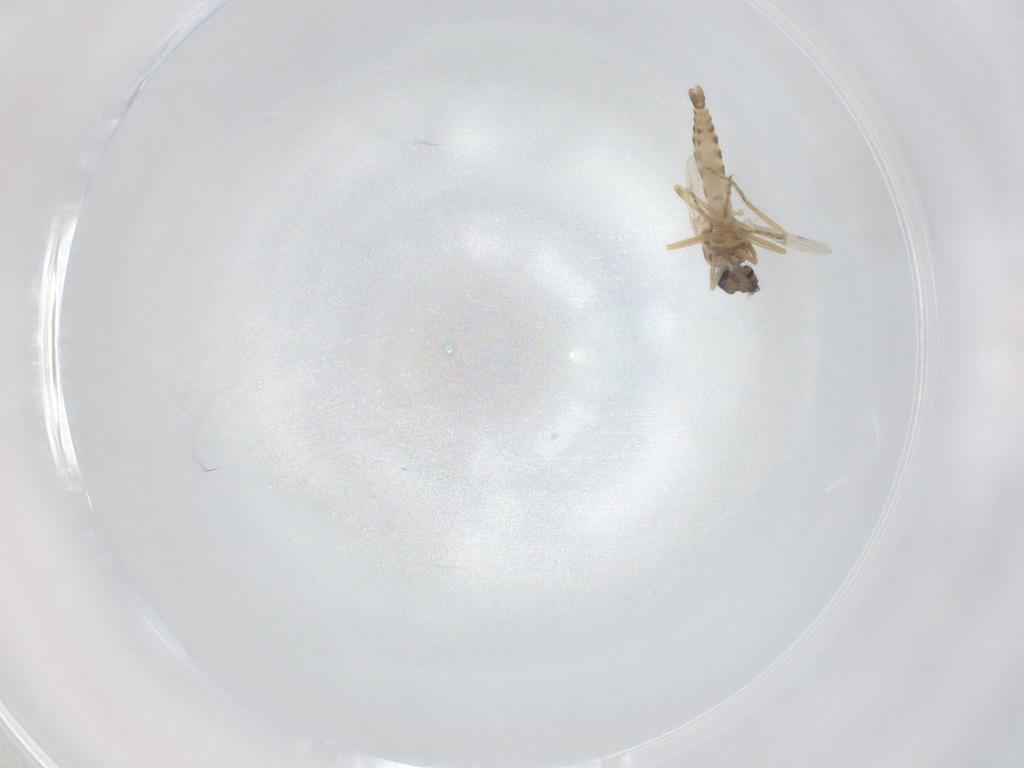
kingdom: Animalia
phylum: Arthropoda
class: Insecta
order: Diptera
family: Ceratopogonidae
